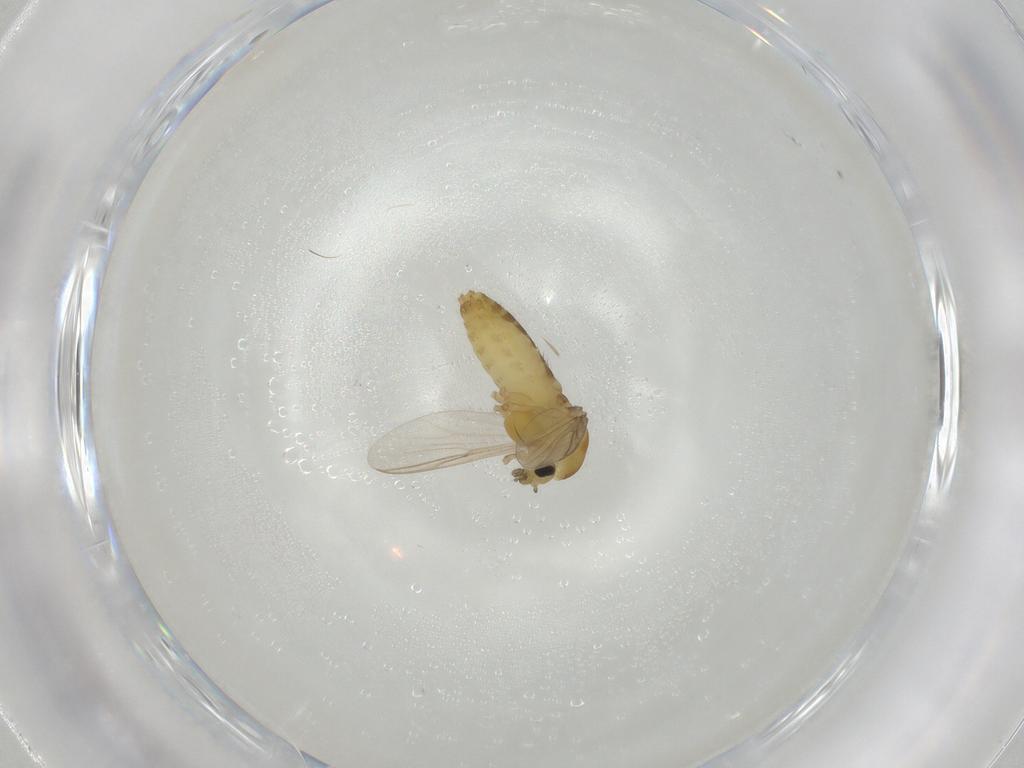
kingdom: Animalia
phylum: Arthropoda
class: Insecta
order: Diptera
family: Chironomidae
